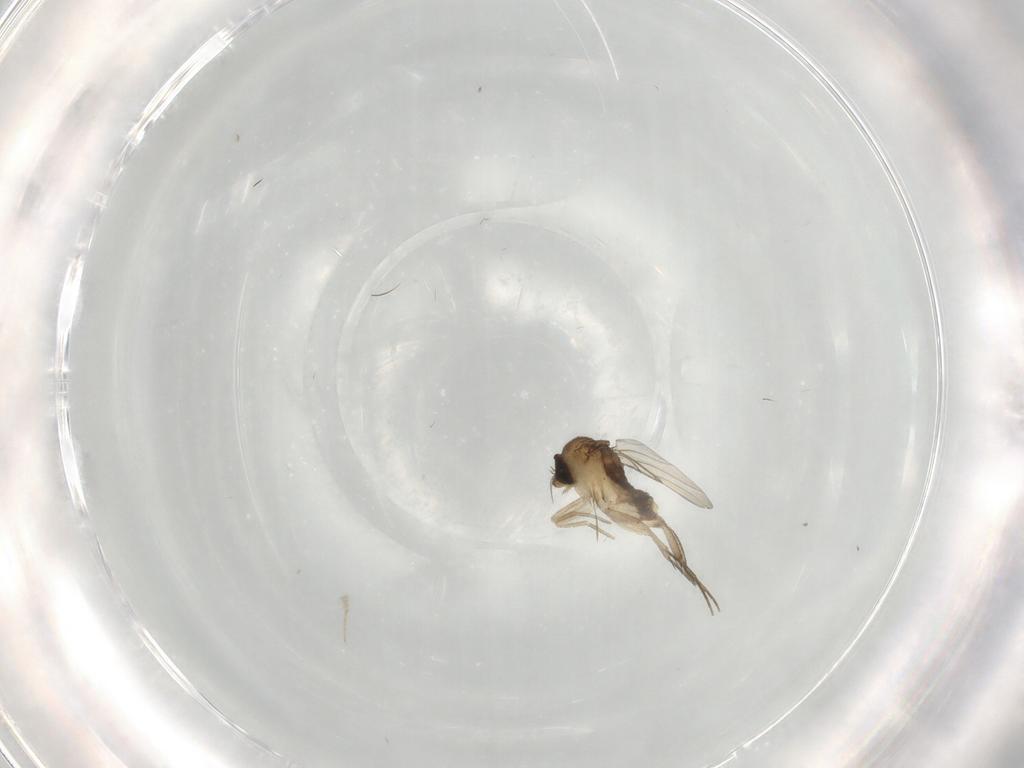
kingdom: Animalia
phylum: Arthropoda
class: Insecta
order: Diptera
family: Phoridae
